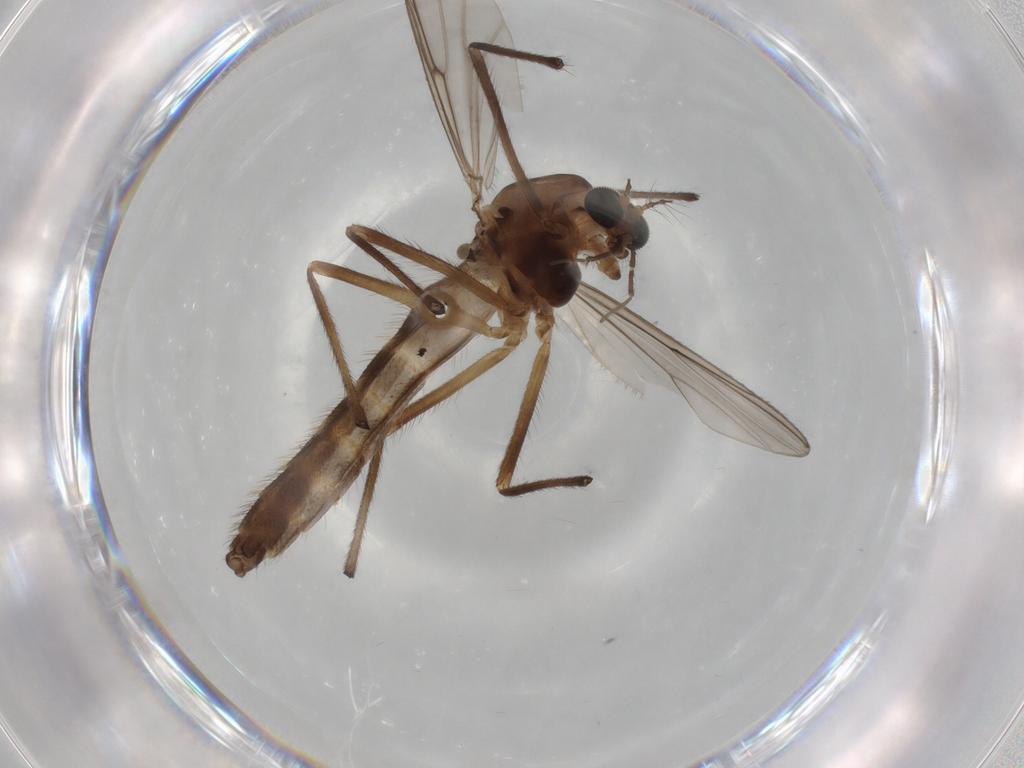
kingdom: Animalia
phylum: Arthropoda
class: Insecta
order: Diptera
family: Chironomidae
